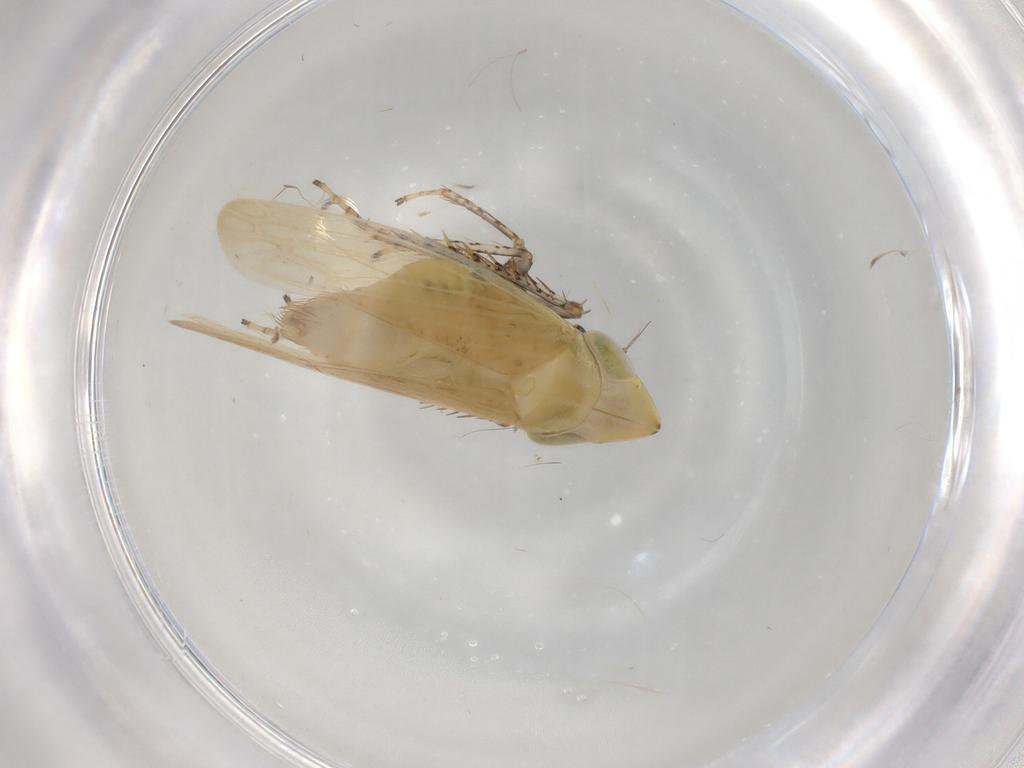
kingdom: Animalia
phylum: Arthropoda
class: Insecta
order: Hemiptera
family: Cicadellidae
